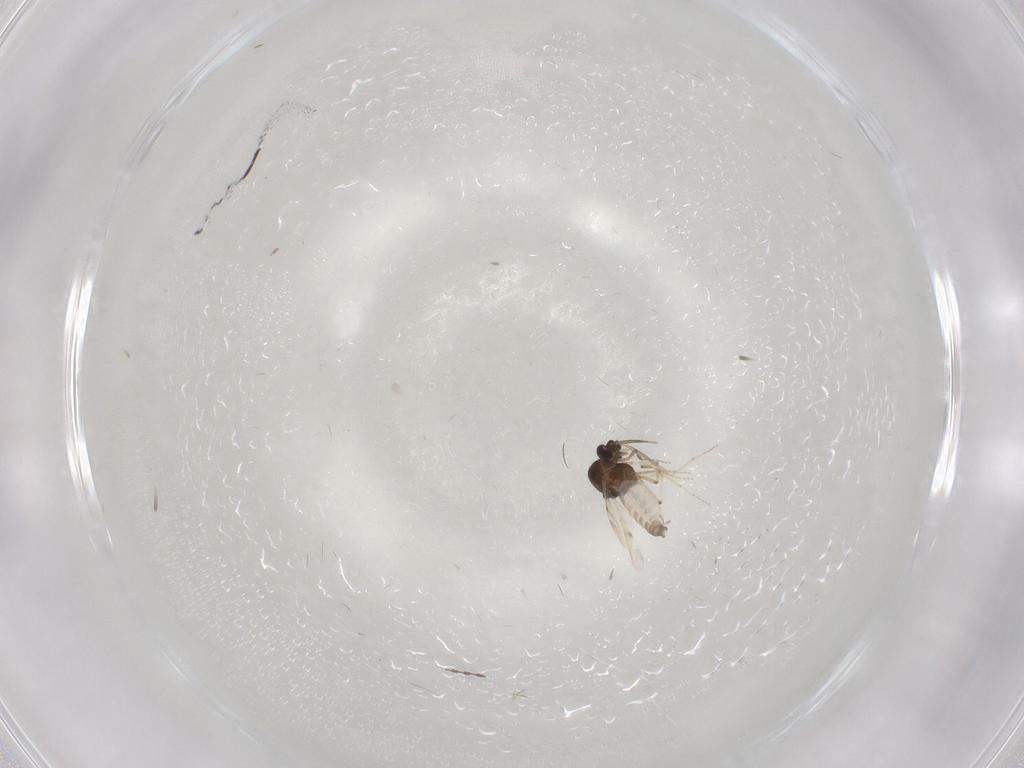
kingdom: Animalia
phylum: Arthropoda
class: Insecta
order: Diptera
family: Cecidomyiidae
